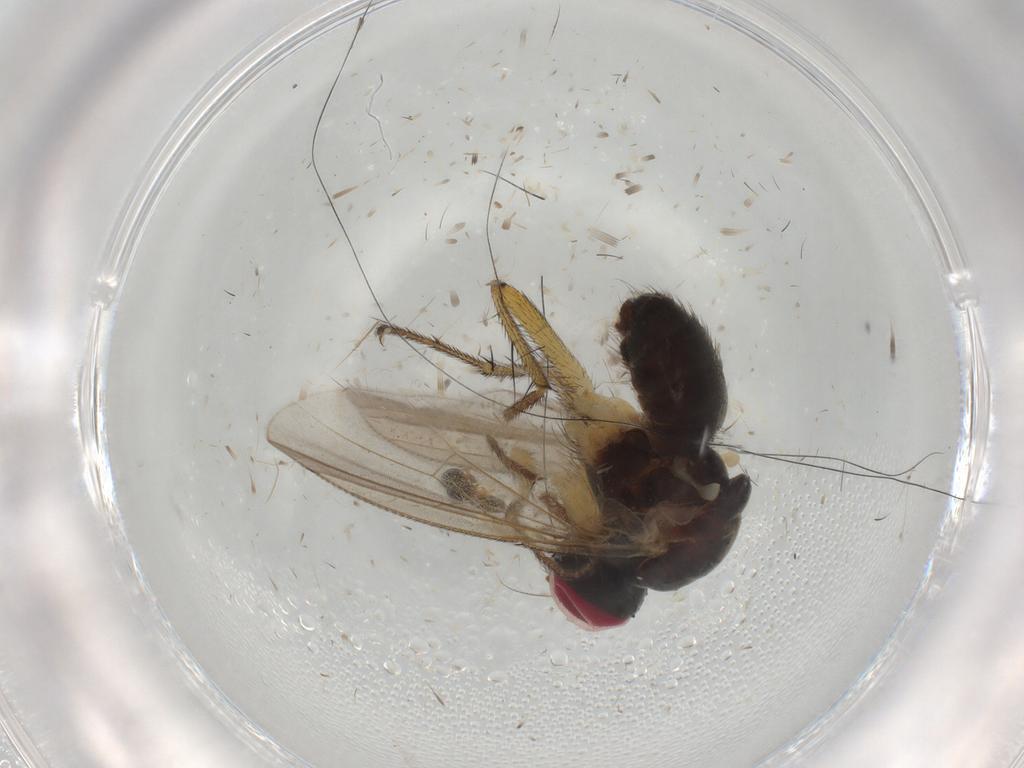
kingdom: Animalia
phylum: Arthropoda
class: Insecta
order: Diptera
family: Muscidae
